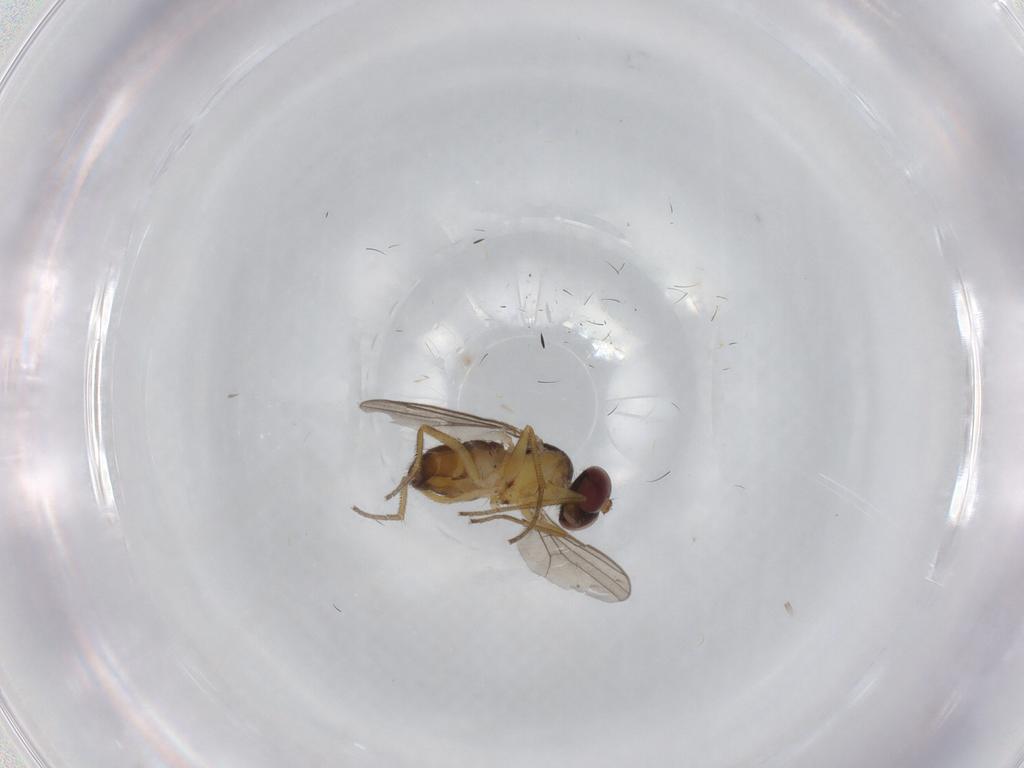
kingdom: Animalia
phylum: Arthropoda
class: Insecta
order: Diptera
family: Dolichopodidae
